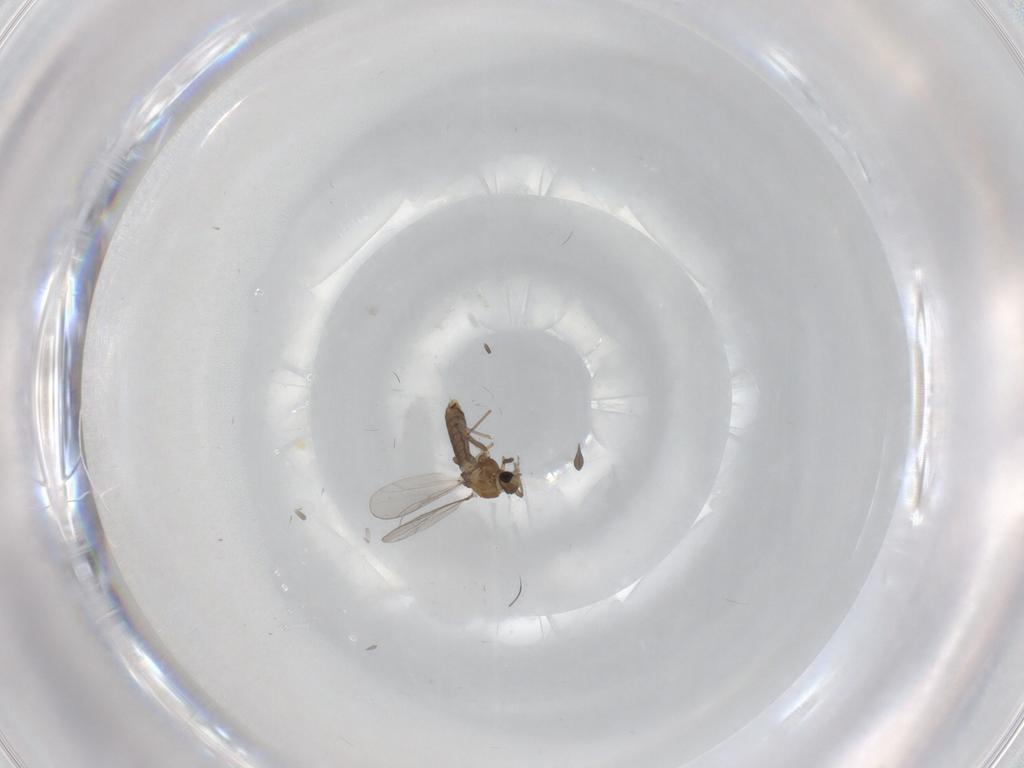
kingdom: Animalia
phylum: Arthropoda
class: Insecta
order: Diptera
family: Chironomidae
